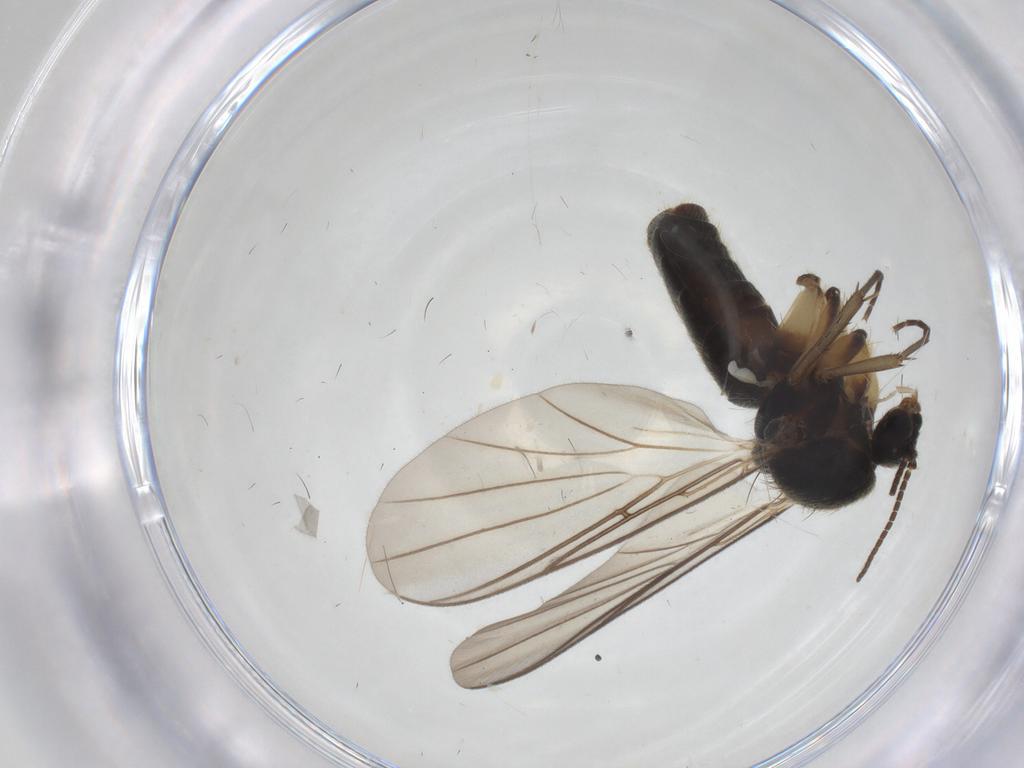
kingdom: Animalia
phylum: Arthropoda
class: Insecta
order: Diptera
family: Mycetophilidae
